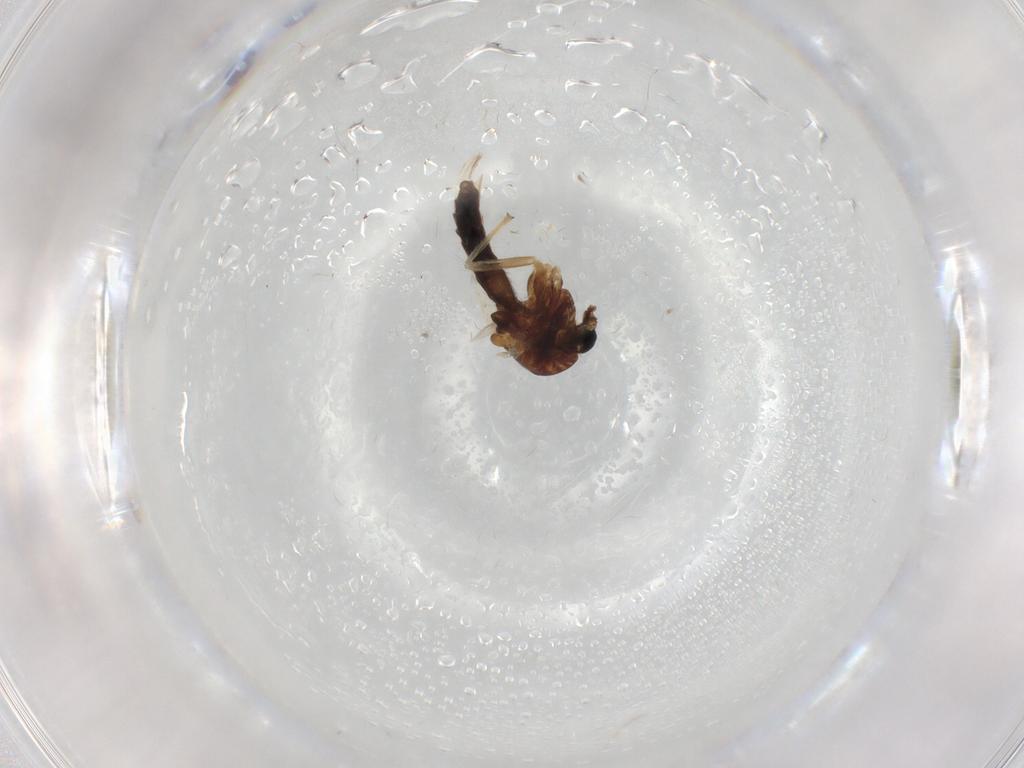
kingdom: Animalia
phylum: Arthropoda
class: Insecta
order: Diptera
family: Chironomidae
